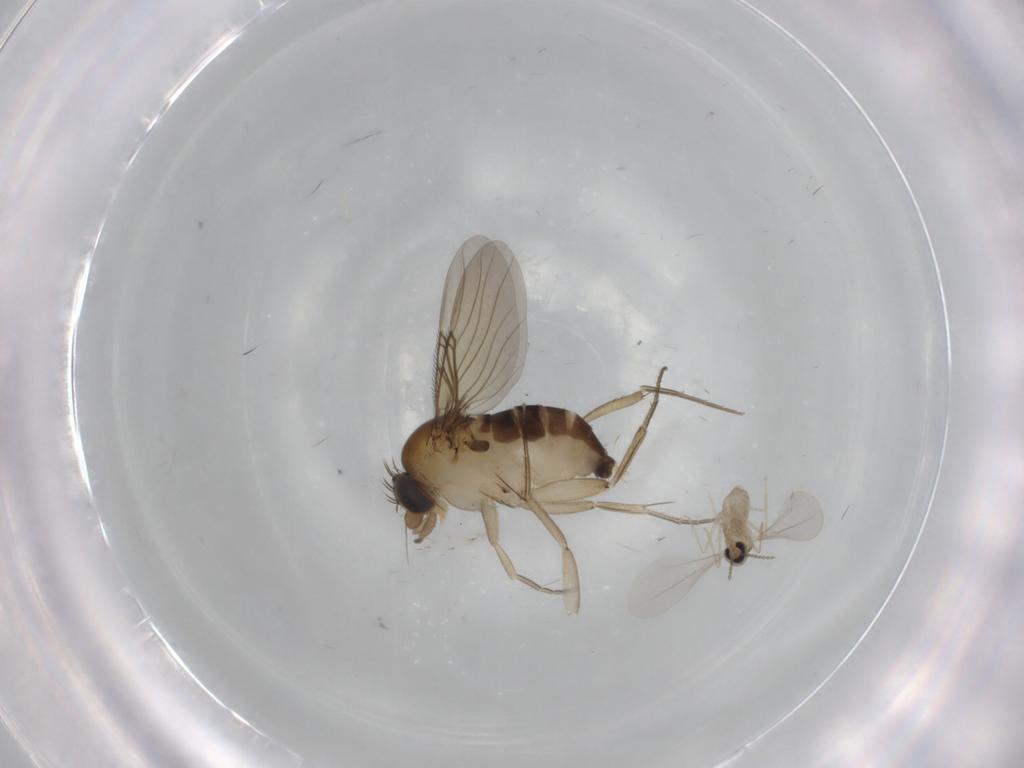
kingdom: Animalia
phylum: Arthropoda
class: Insecta
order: Diptera
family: Cecidomyiidae
